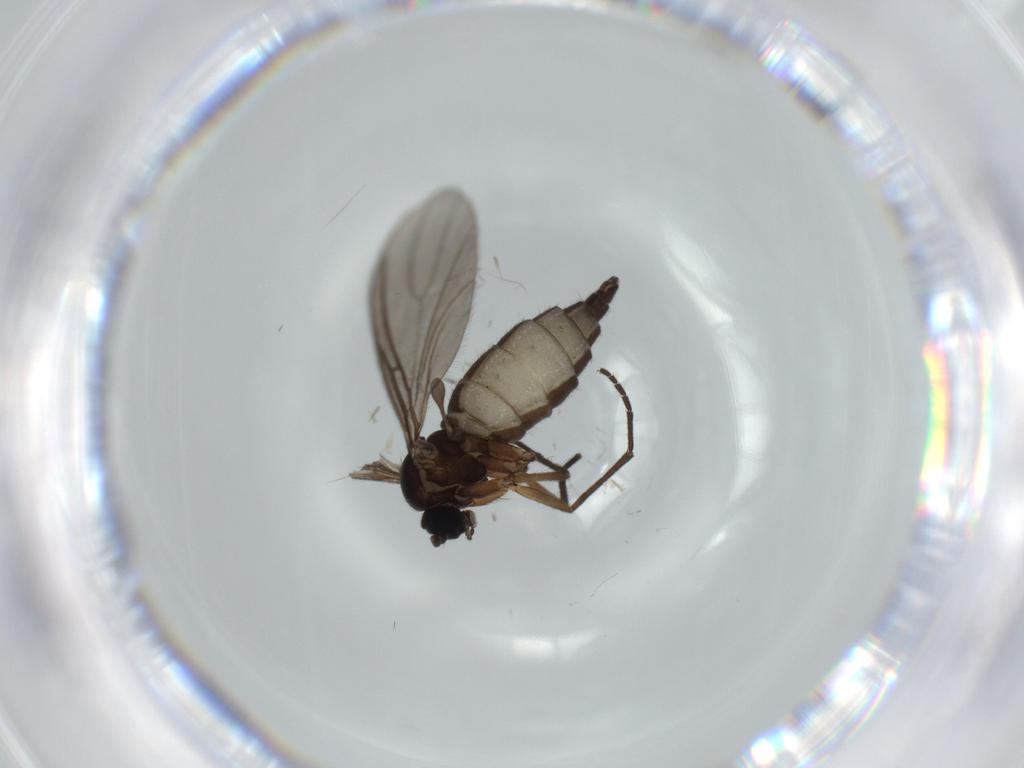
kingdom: Animalia
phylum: Arthropoda
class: Insecta
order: Diptera
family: Sciaridae
